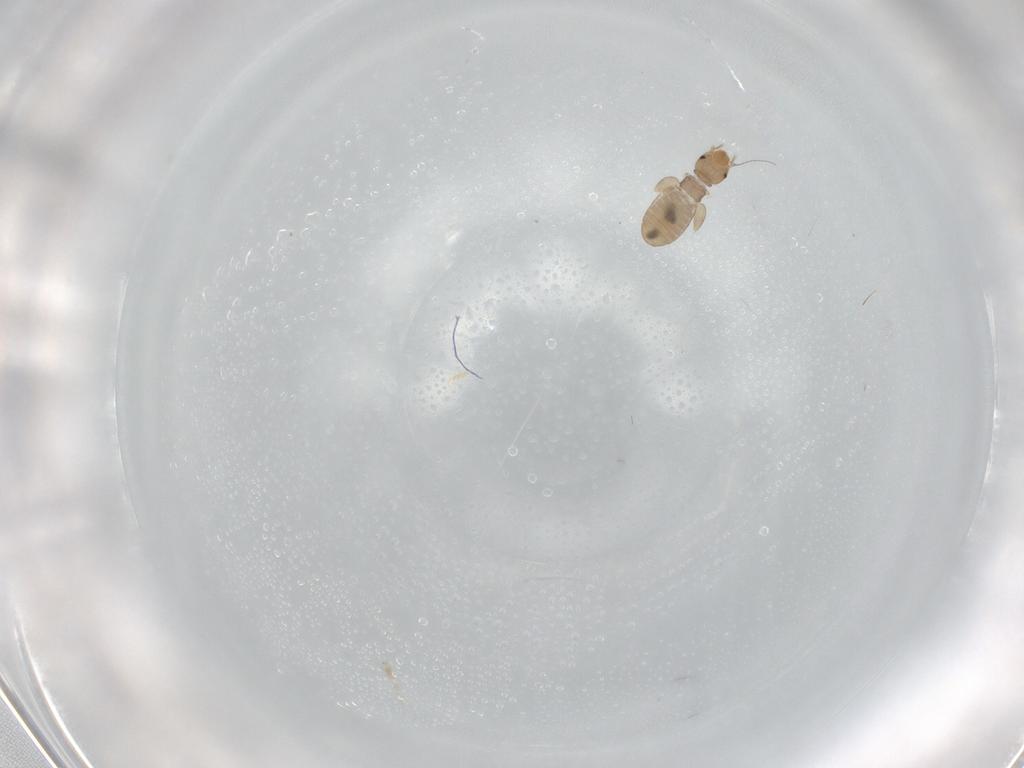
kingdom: Animalia
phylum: Arthropoda
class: Insecta
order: Psocodea
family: Lepidopsocidae
